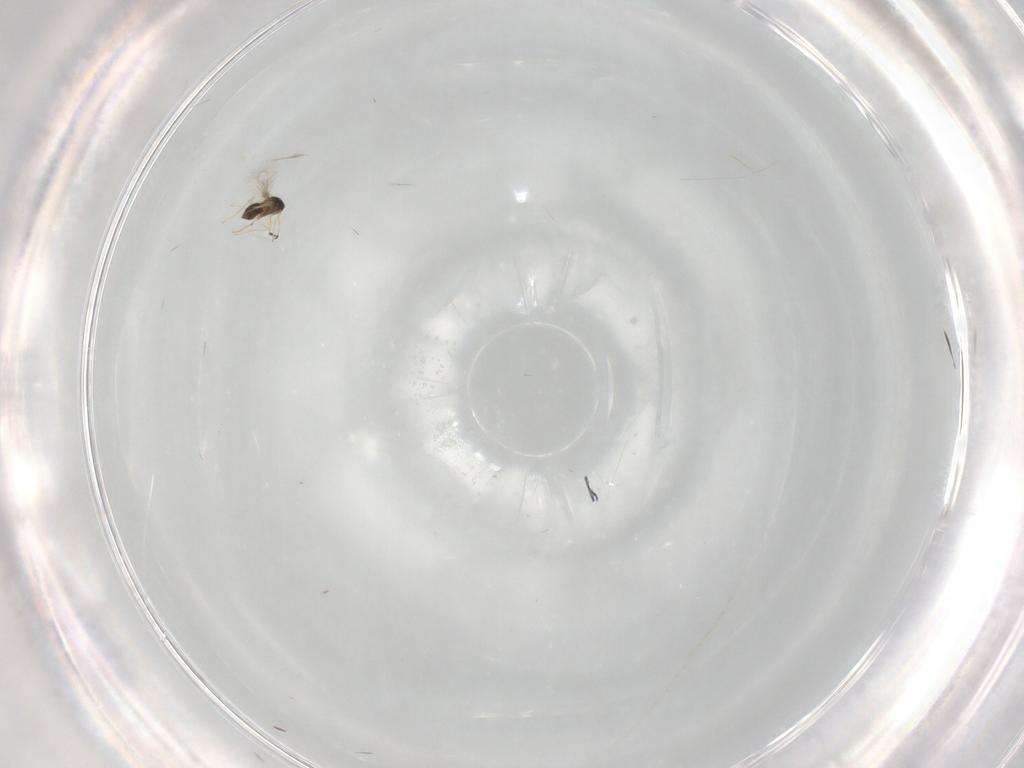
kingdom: Animalia
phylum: Arthropoda
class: Insecta
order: Hymenoptera
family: Mymaridae
